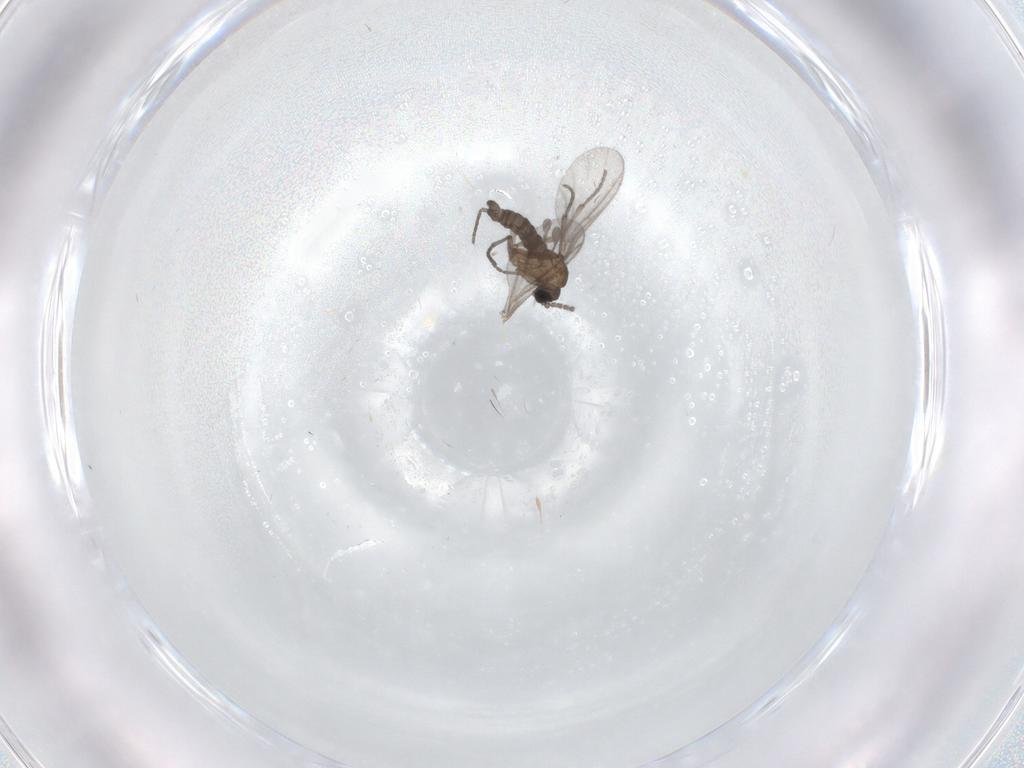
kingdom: Animalia
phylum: Arthropoda
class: Insecta
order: Diptera
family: Sciaridae
